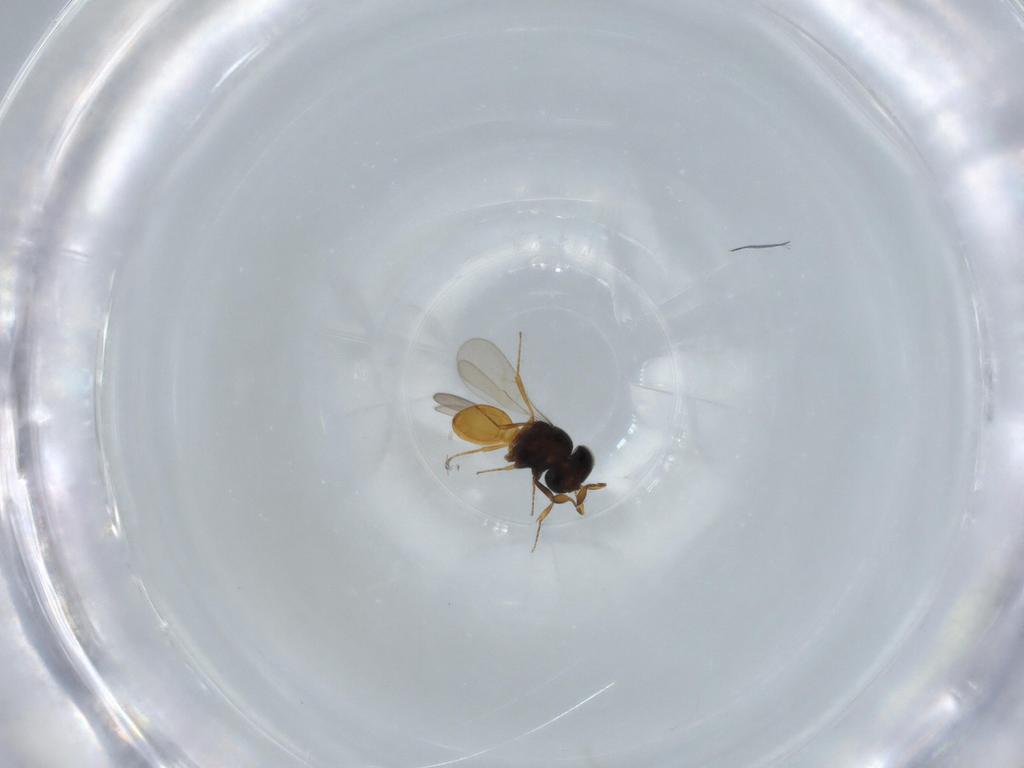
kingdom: Animalia
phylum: Arthropoda
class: Insecta
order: Hymenoptera
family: Scelionidae
